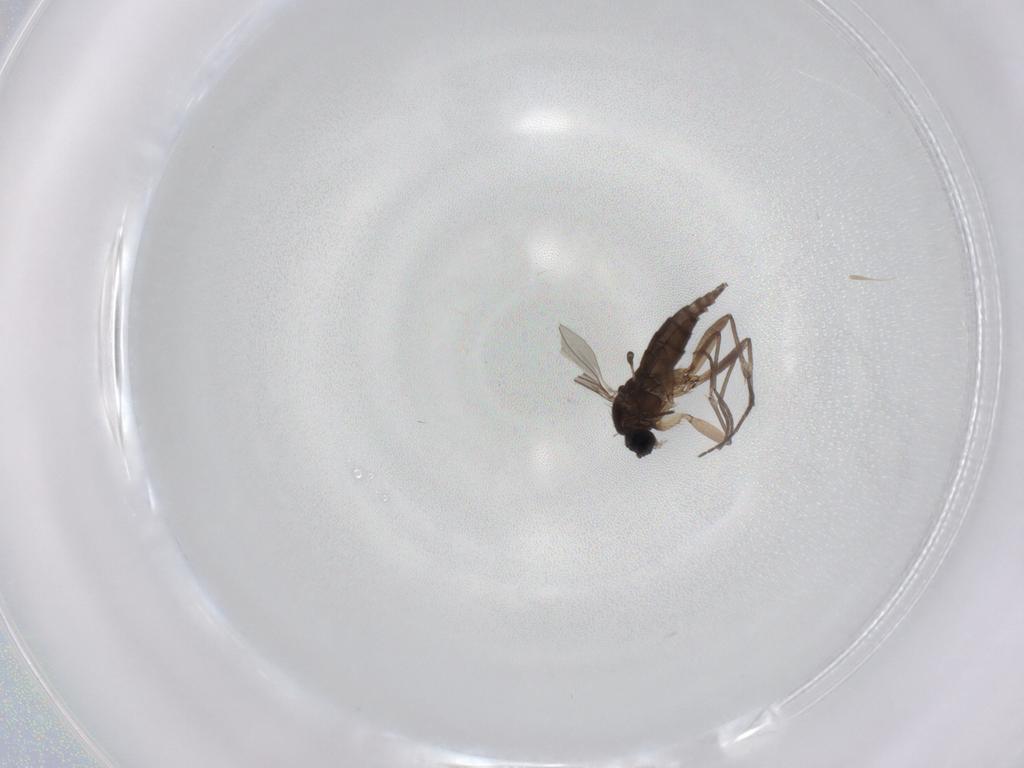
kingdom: Animalia
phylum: Arthropoda
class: Insecta
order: Diptera
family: Sciaridae
